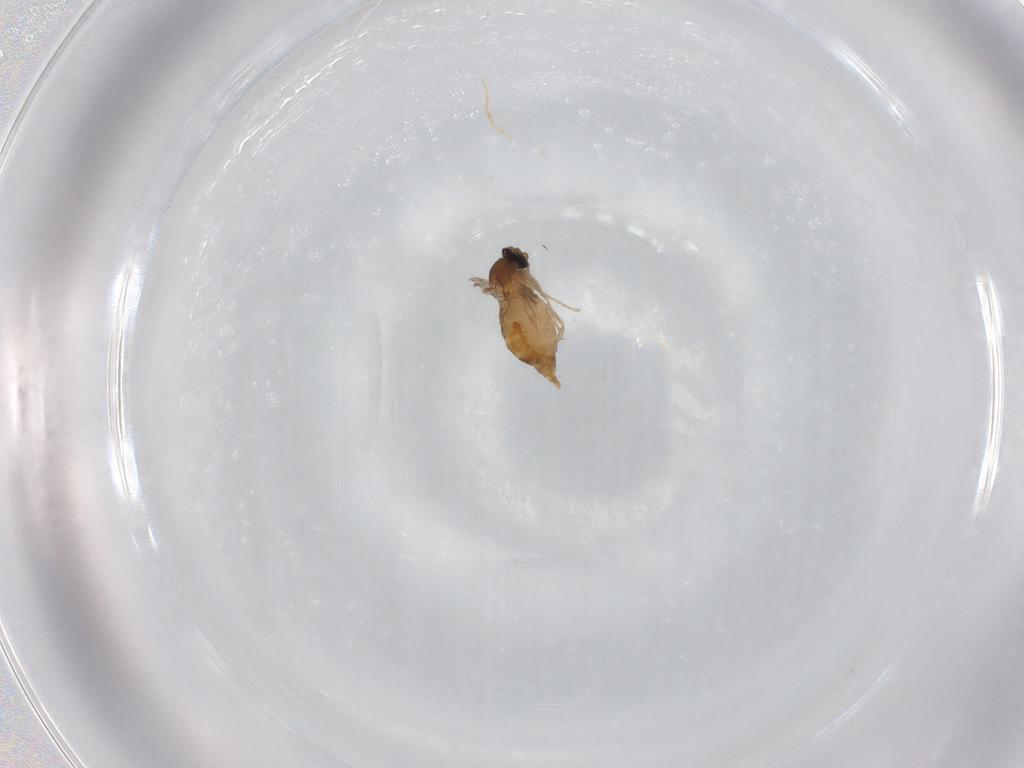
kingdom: Animalia
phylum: Arthropoda
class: Insecta
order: Diptera
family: Cecidomyiidae
